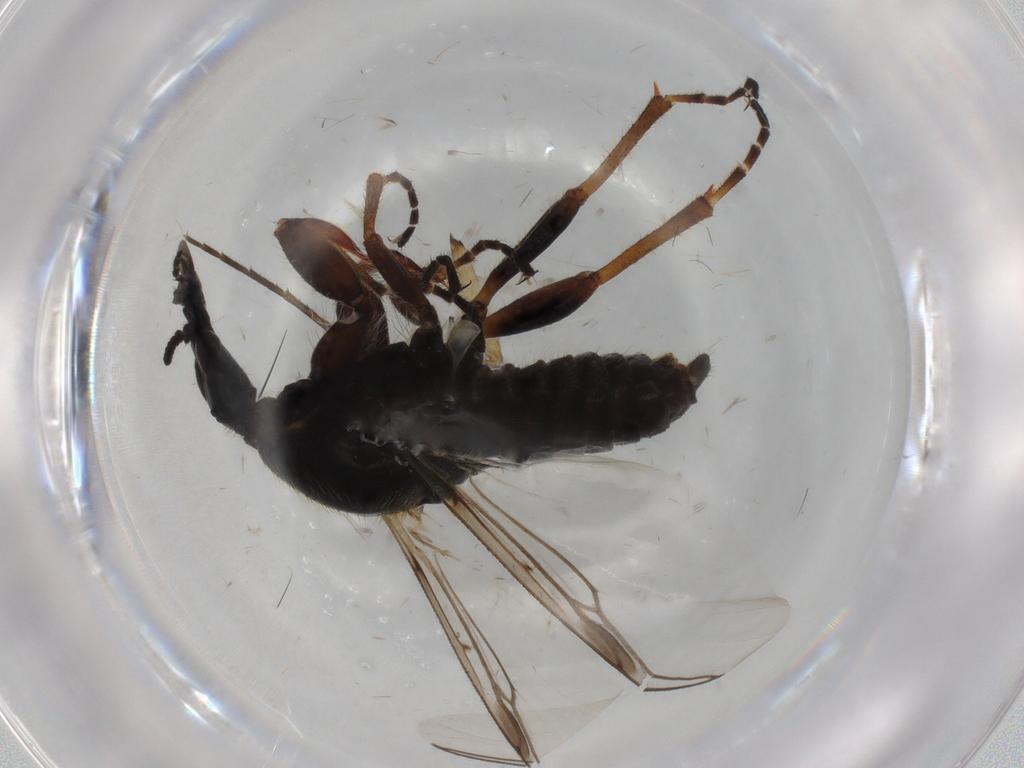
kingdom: Animalia
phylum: Arthropoda
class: Insecta
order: Diptera
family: Bibionidae
